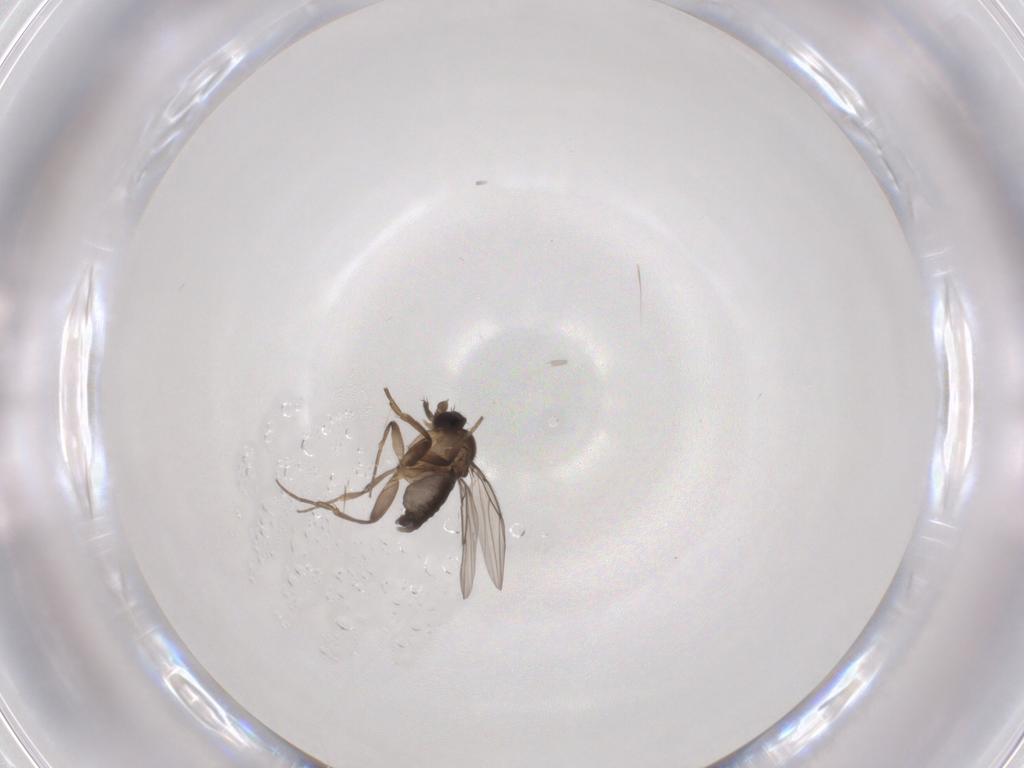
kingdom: Animalia
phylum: Arthropoda
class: Insecta
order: Diptera
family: Phoridae
